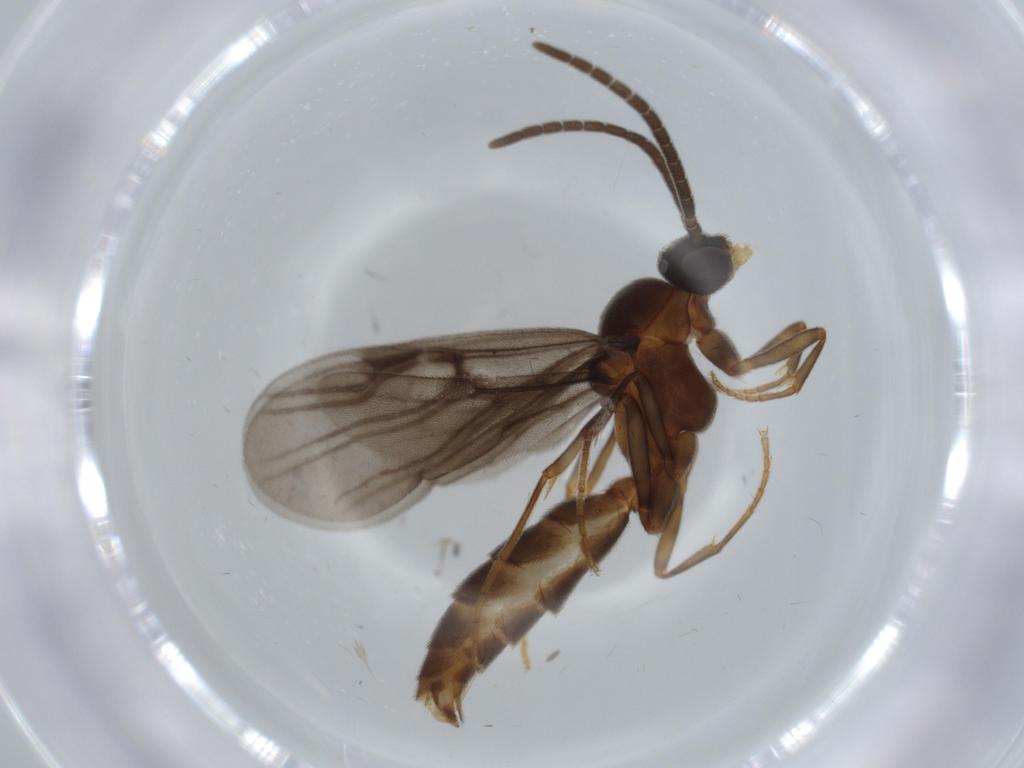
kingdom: Animalia
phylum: Arthropoda
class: Insecta
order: Hymenoptera
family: Formicidae
